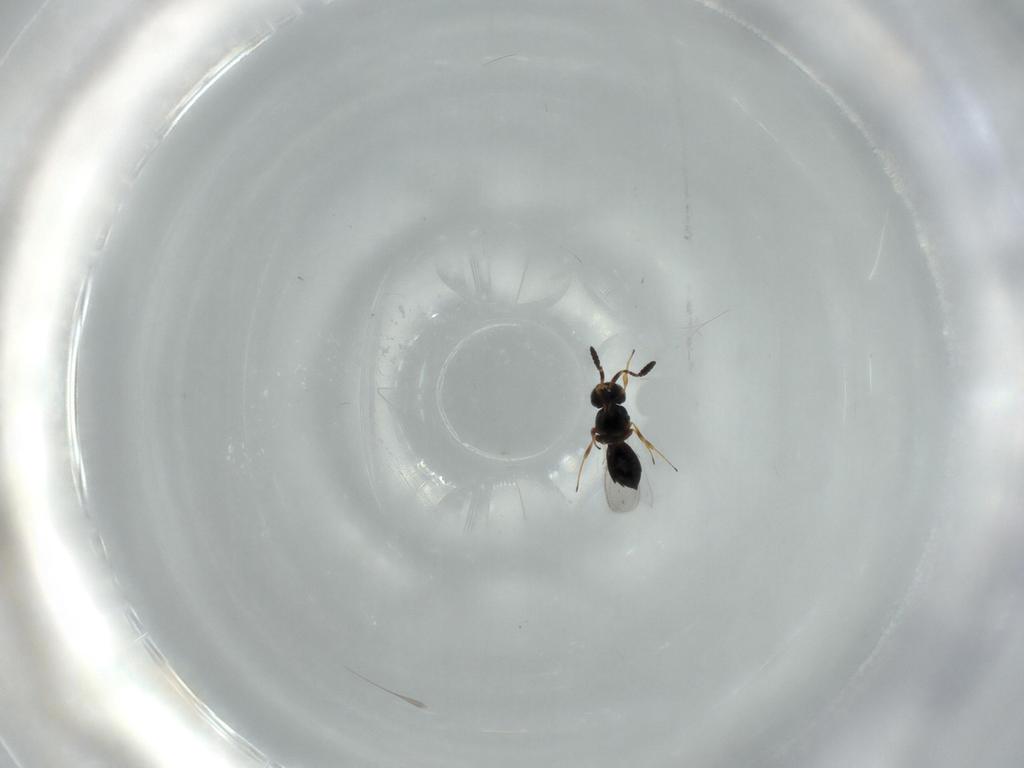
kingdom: Animalia
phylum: Arthropoda
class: Insecta
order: Hymenoptera
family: Scelionidae
